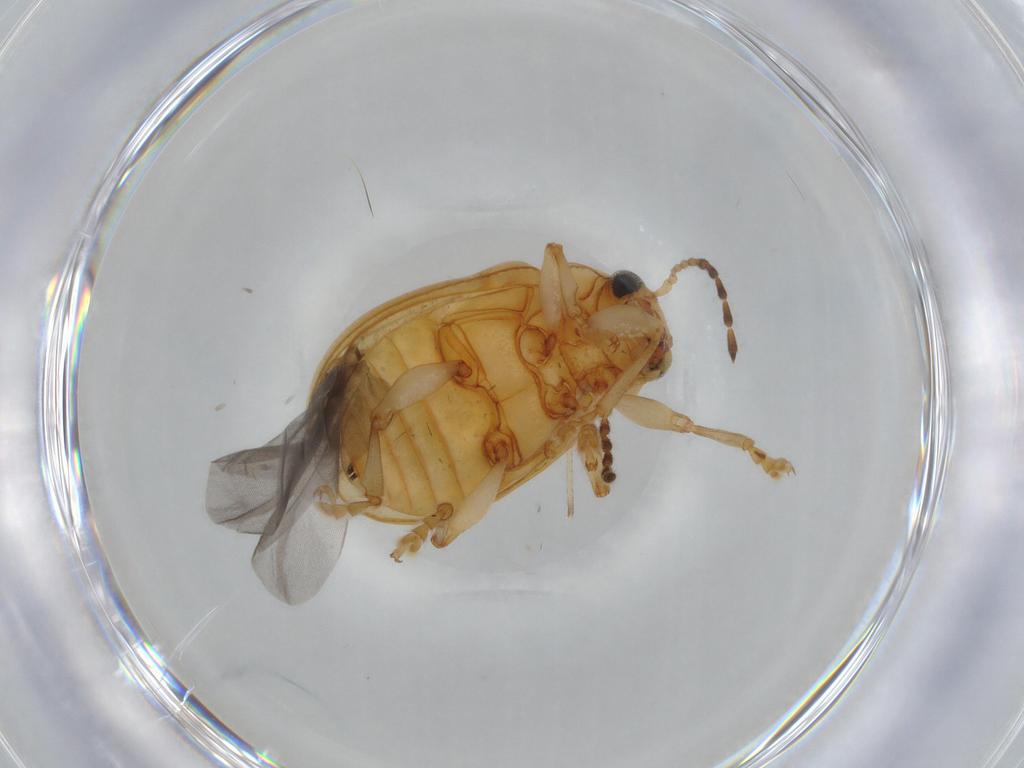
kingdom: Animalia
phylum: Arthropoda
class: Insecta
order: Coleoptera
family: Chrysomelidae
